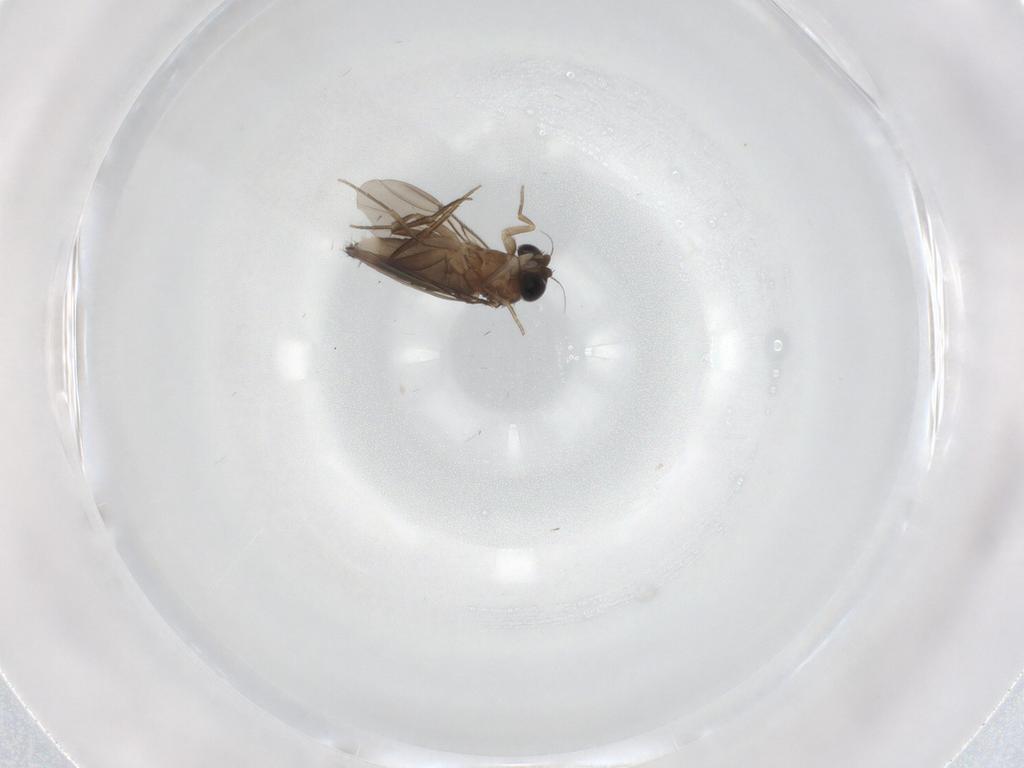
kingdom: Animalia
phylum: Arthropoda
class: Insecta
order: Diptera
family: Phoridae
